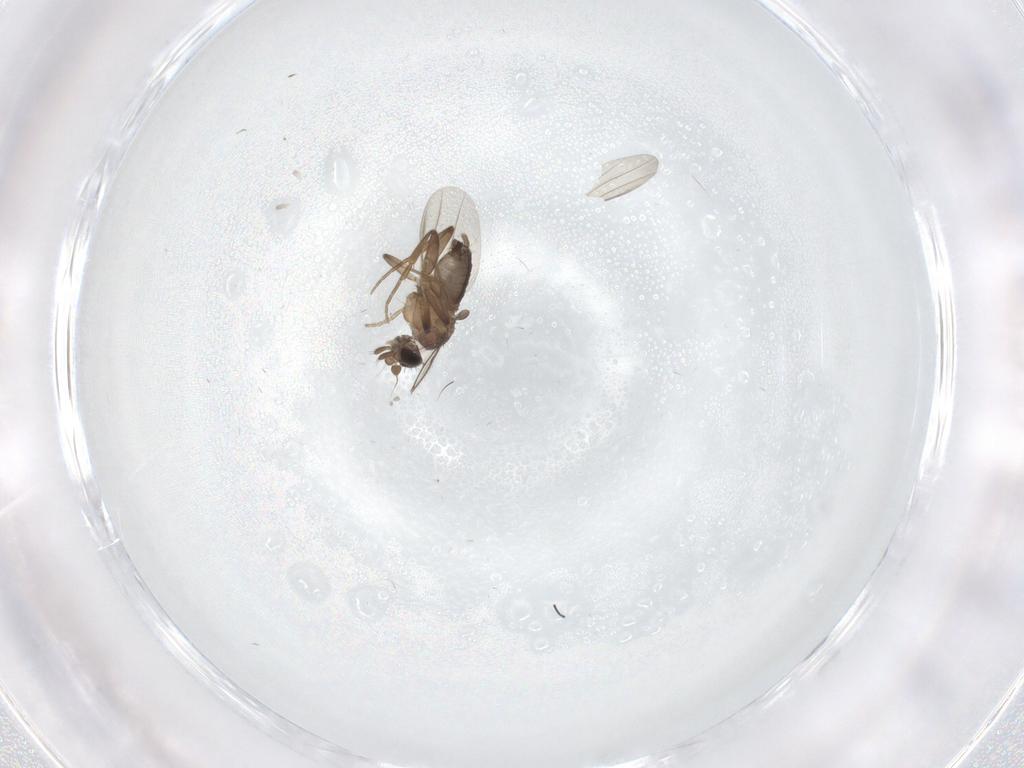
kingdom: Animalia
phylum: Arthropoda
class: Insecta
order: Diptera
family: Phoridae
